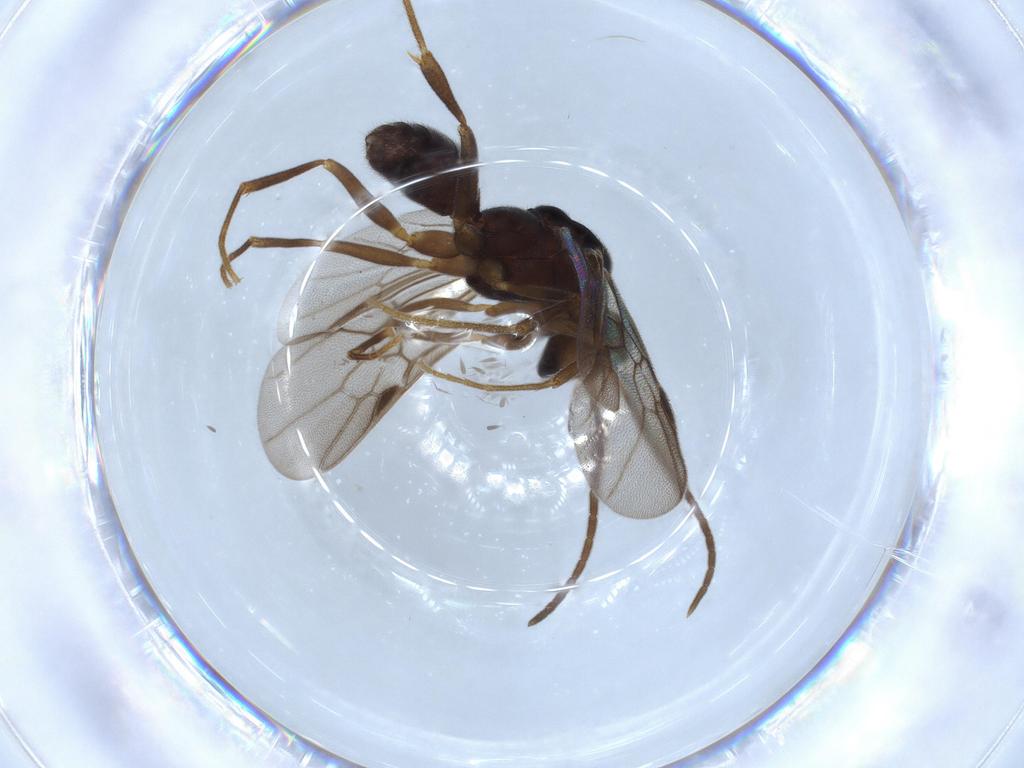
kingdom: Animalia
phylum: Arthropoda
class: Insecta
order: Hymenoptera
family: Formicidae
